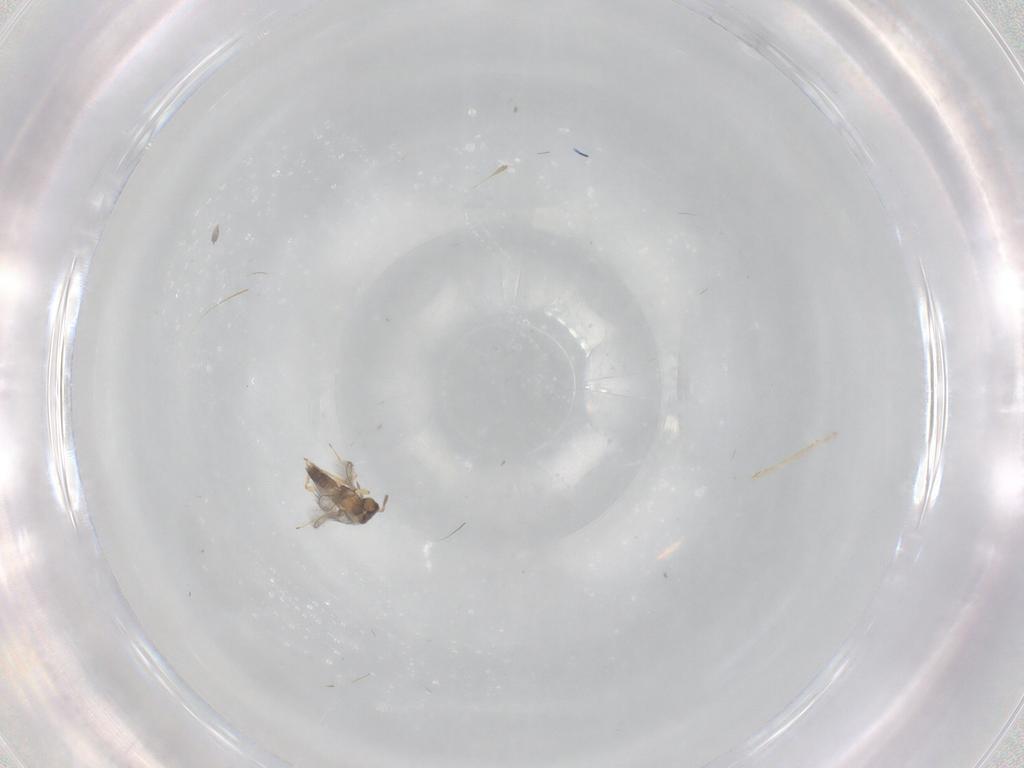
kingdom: Animalia
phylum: Arthropoda
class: Insecta
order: Hymenoptera
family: Mymaridae
